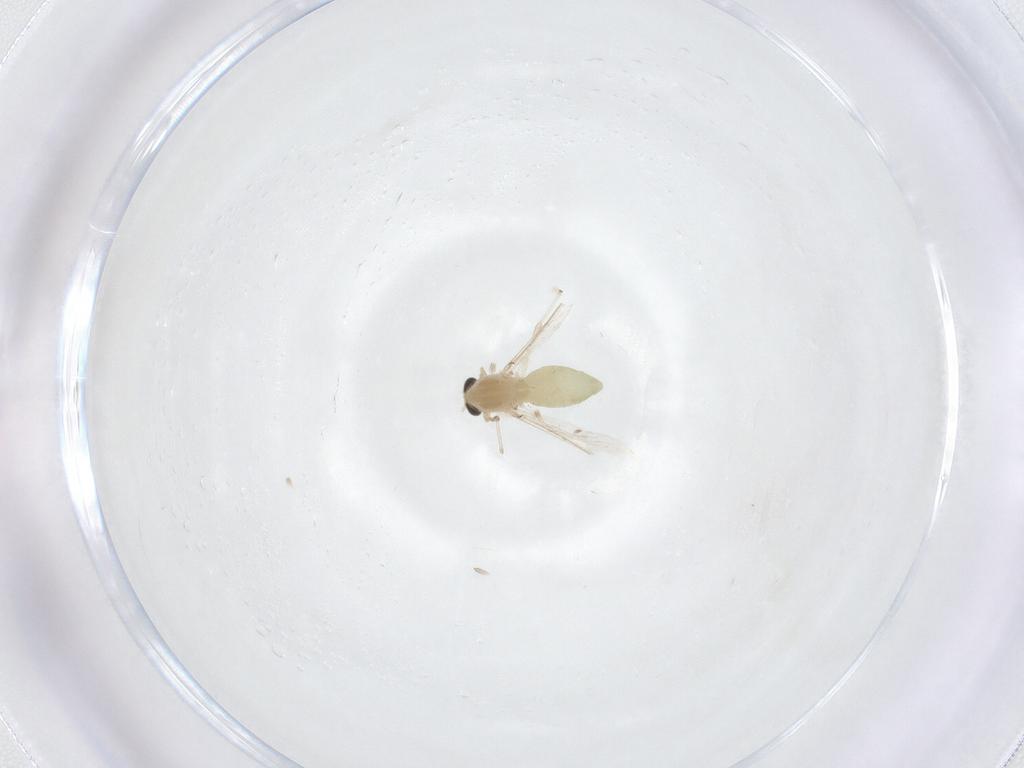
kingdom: Animalia
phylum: Arthropoda
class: Insecta
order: Diptera
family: Chironomidae
